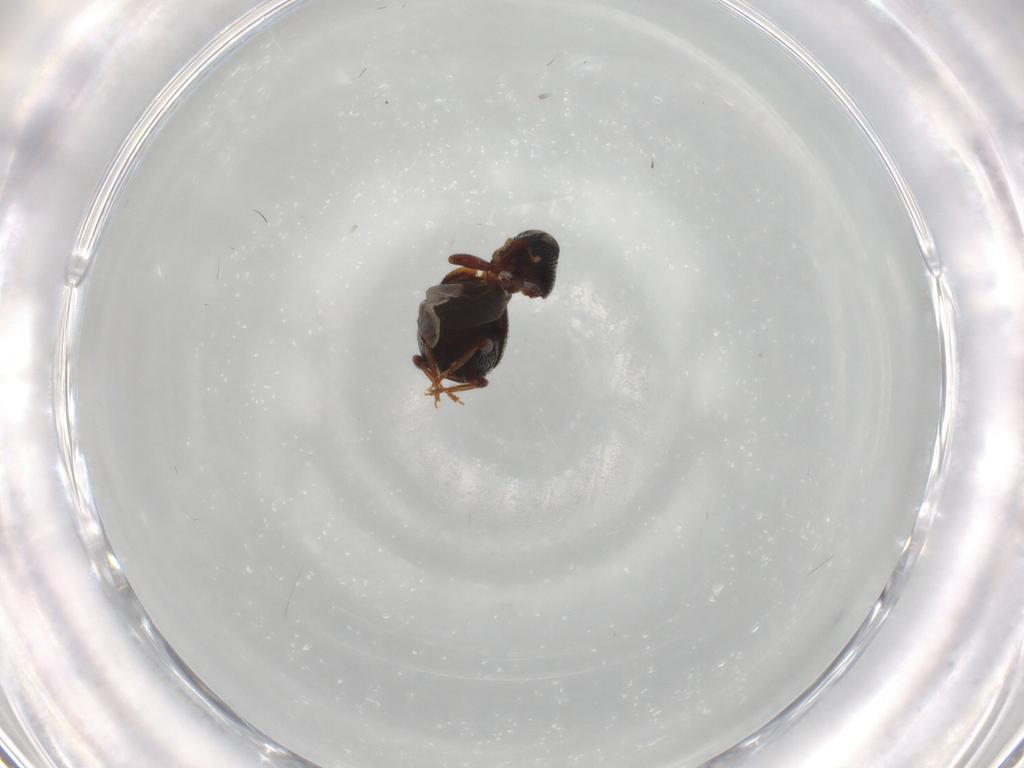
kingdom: Animalia
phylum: Arthropoda
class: Insecta
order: Coleoptera
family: Curculionidae
